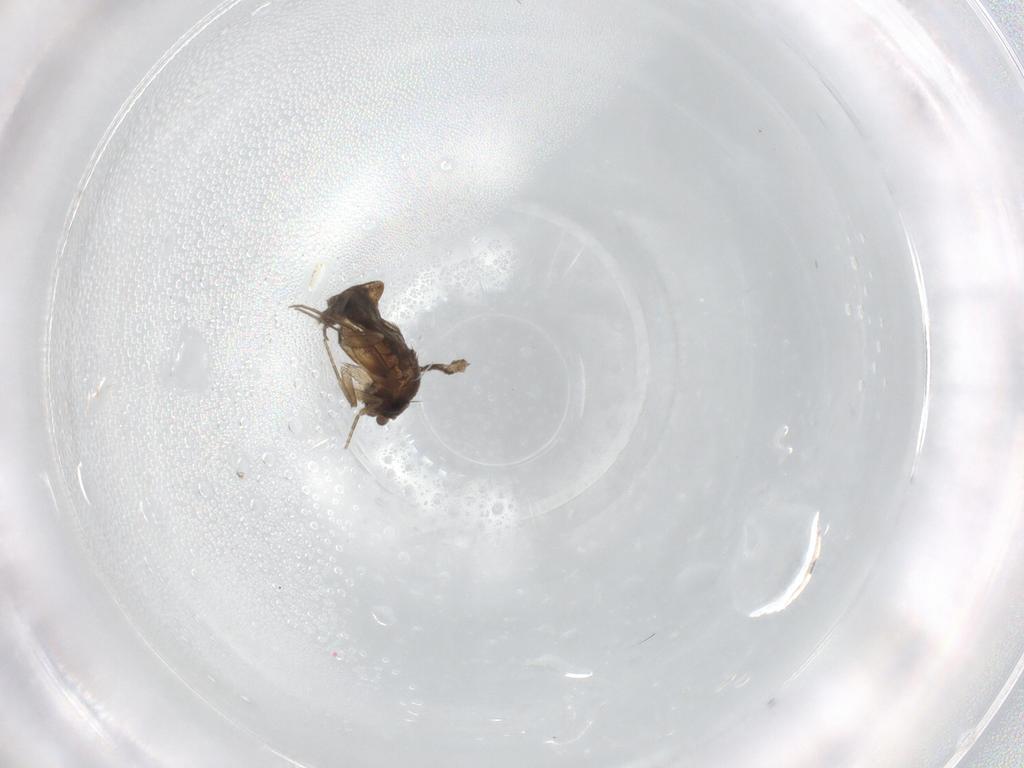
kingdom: Animalia
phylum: Arthropoda
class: Insecta
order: Diptera
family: Phoridae
